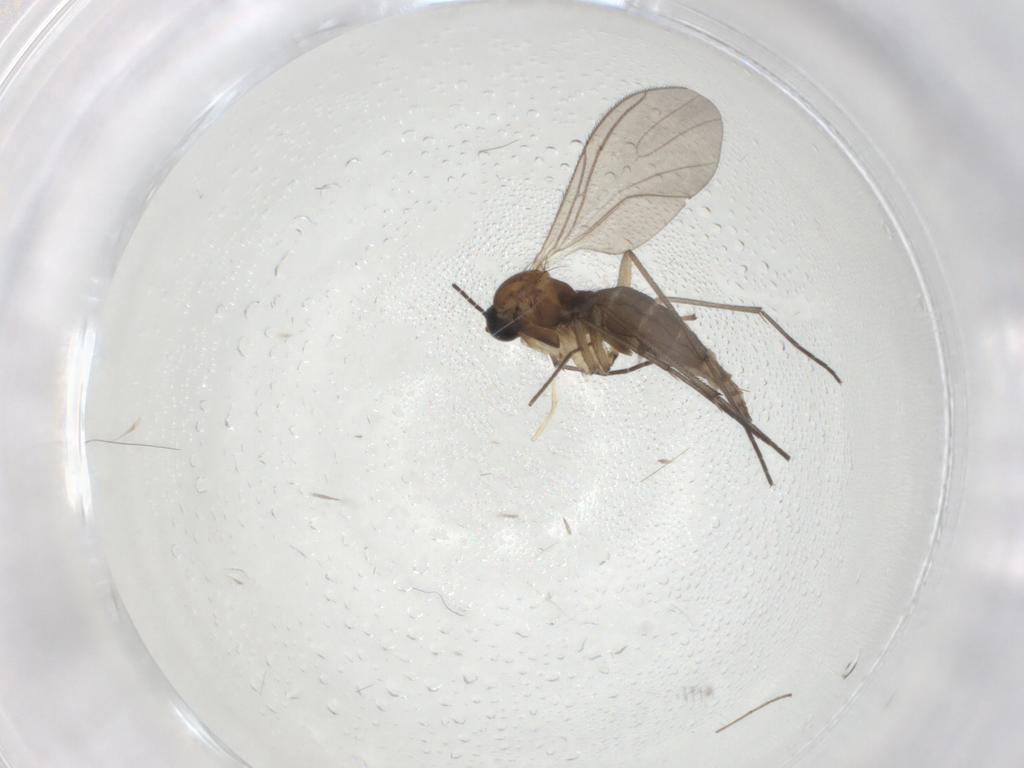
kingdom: Animalia
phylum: Arthropoda
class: Insecta
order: Diptera
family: Sciaridae
